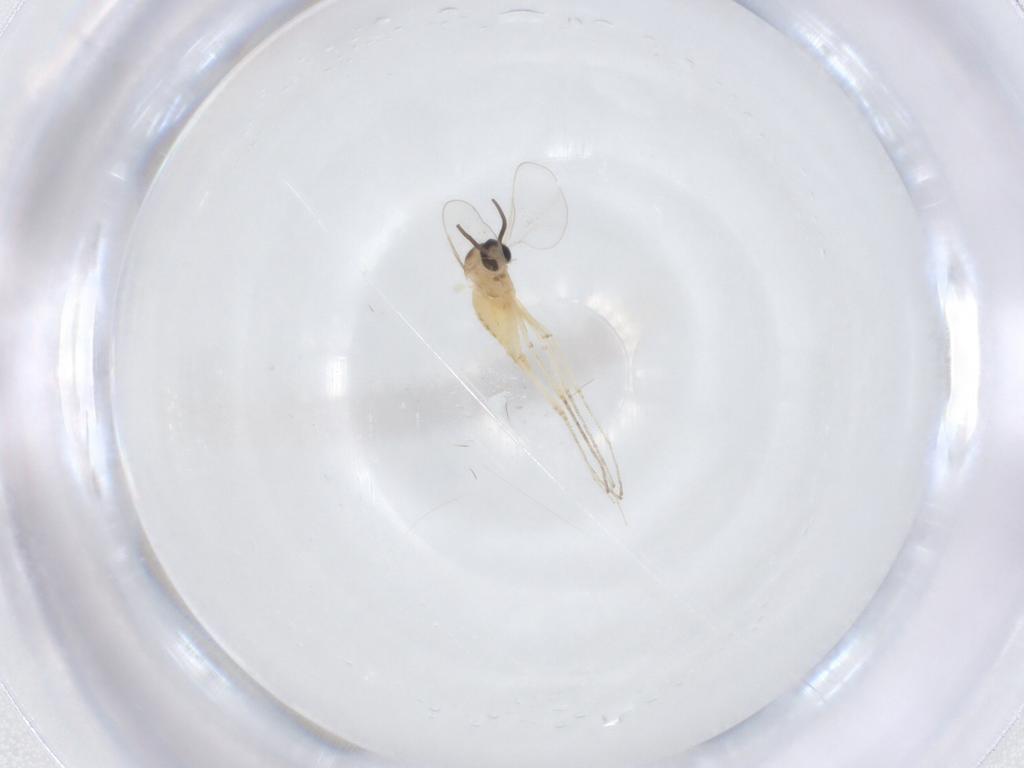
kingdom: Animalia
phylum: Arthropoda
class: Insecta
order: Diptera
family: Cecidomyiidae
